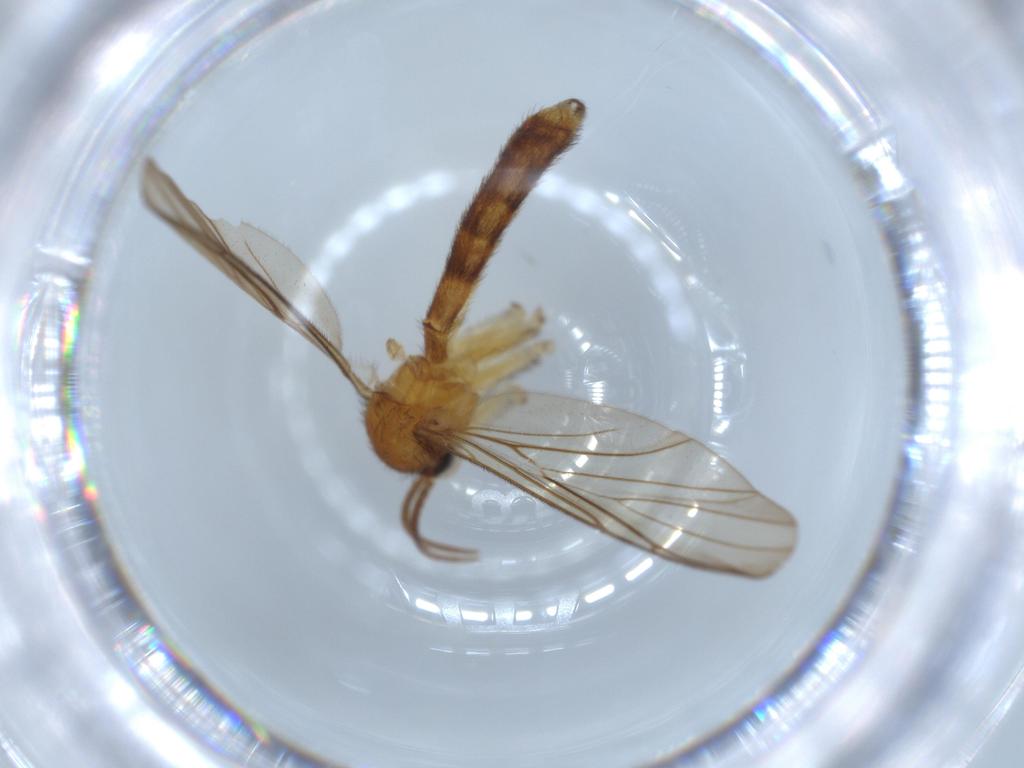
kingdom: Animalia
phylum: Arthropoda
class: Insecta
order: Diptera
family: Keroplatidae
